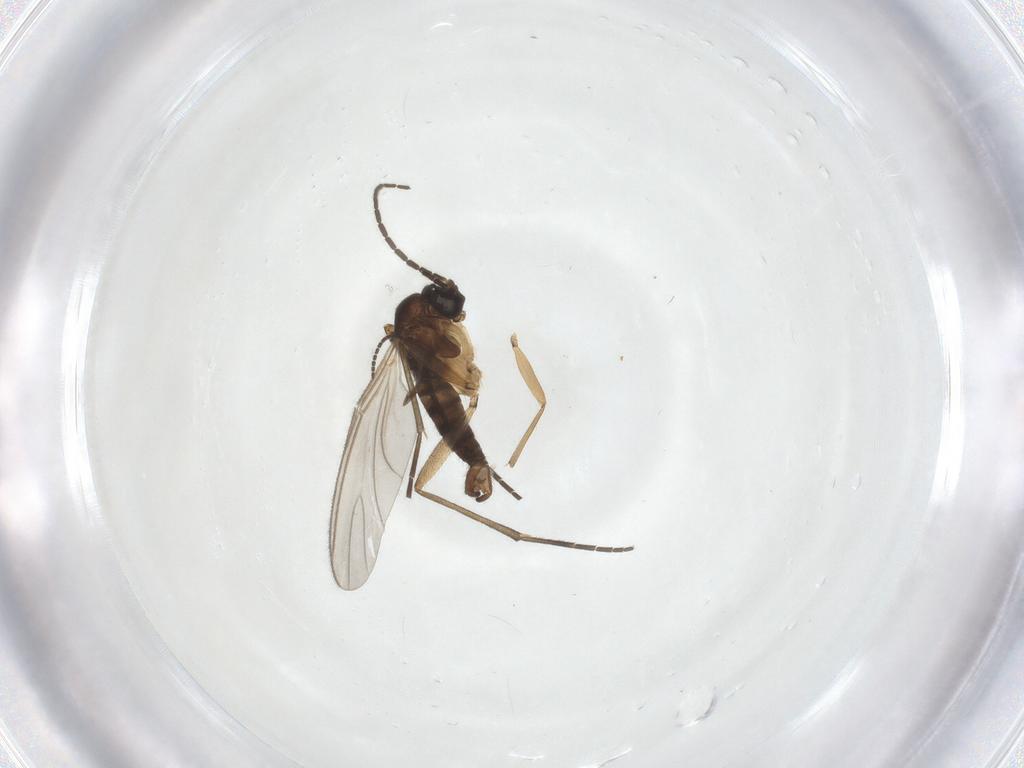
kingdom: Animalia
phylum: Arthropoda
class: Insecta
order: Diptera
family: Sciaridae
